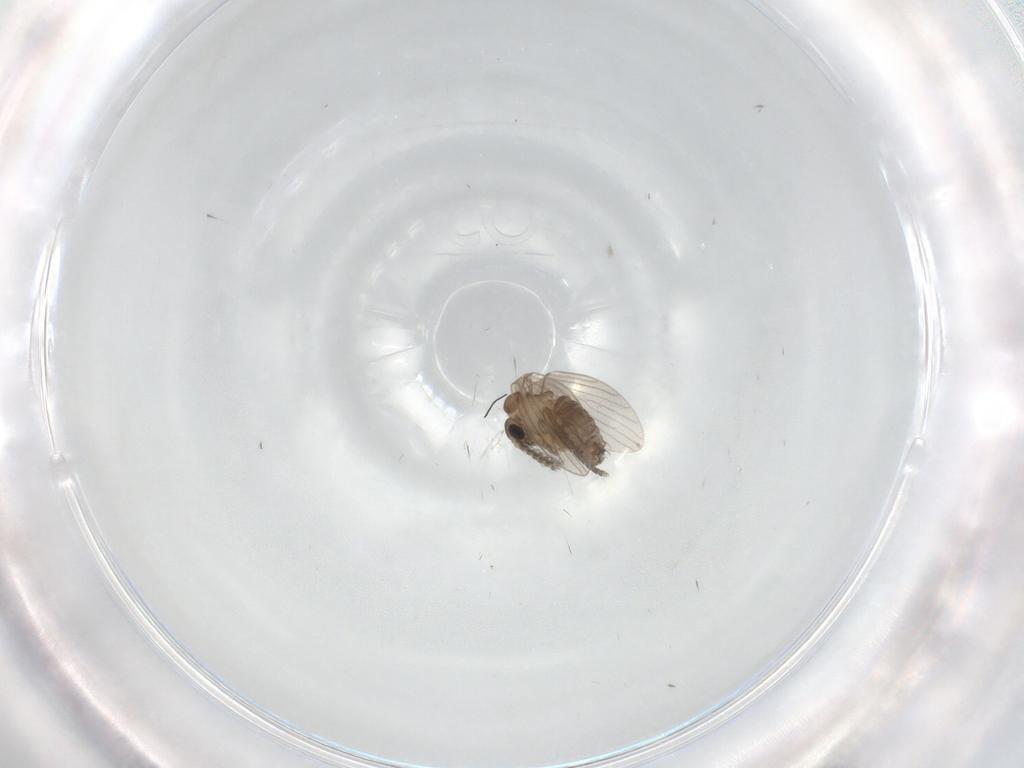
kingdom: Animalia
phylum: Arthropoda
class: Insecta
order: Diptera
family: Psychodidae
